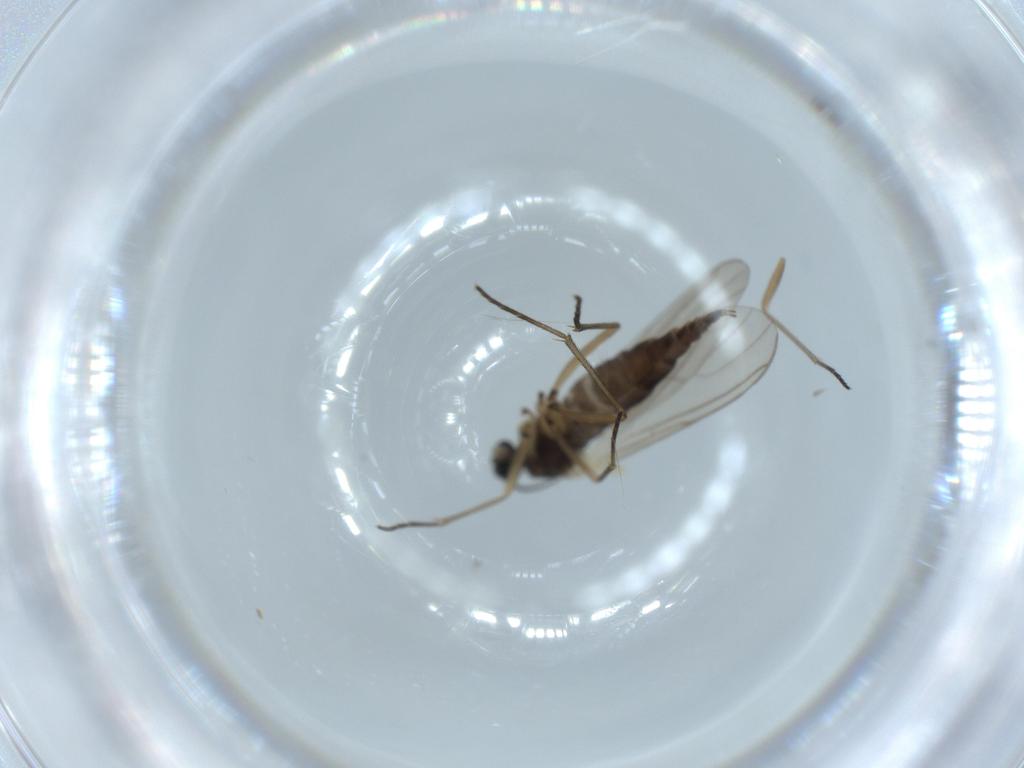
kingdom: Animalia
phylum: Arthropoda
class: Insecta
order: Diptera
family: Sciaridae
